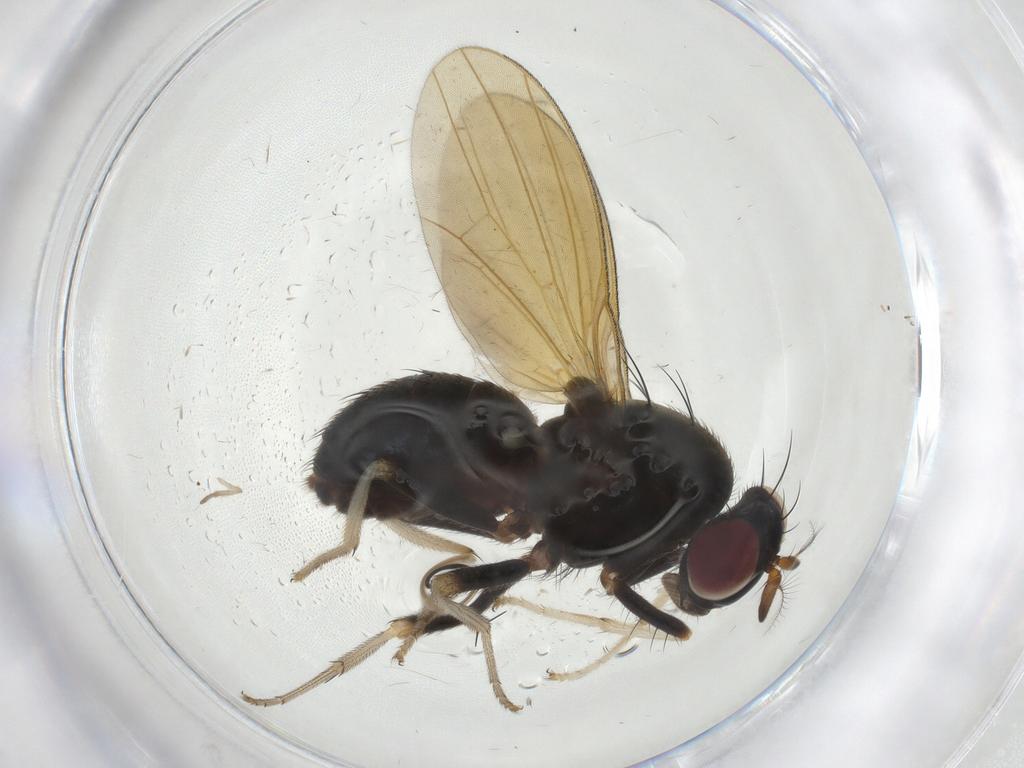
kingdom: Animalia
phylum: Arthropoda
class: Insecta
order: Diptera
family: Lauxaniidae
